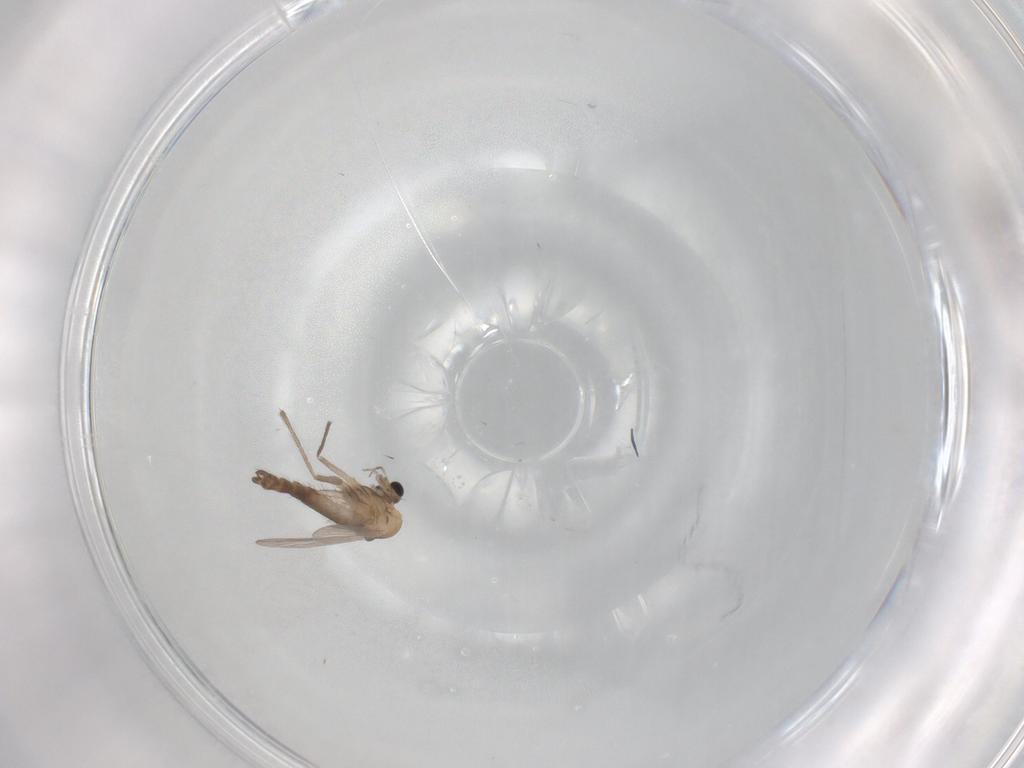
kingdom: Animalia
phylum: Arthropoda
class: Insecta
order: Diptera
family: Chironomidae
